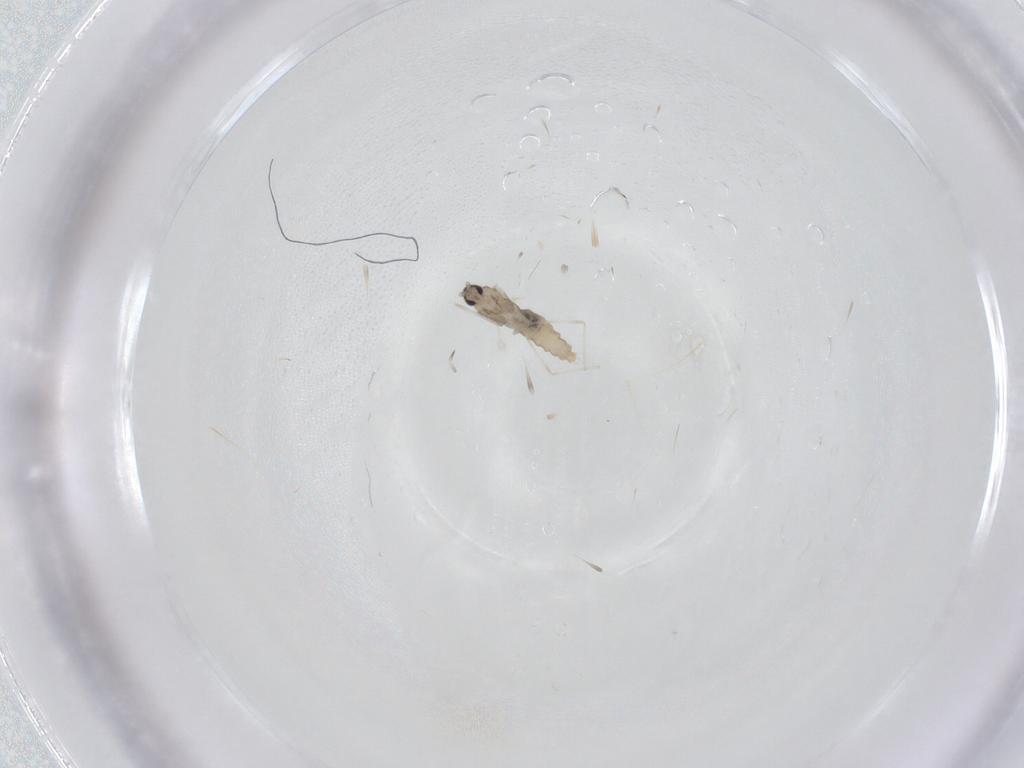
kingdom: Animalia
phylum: Arthropoda
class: Insecta
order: Diptera
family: Cecidomyiidae
